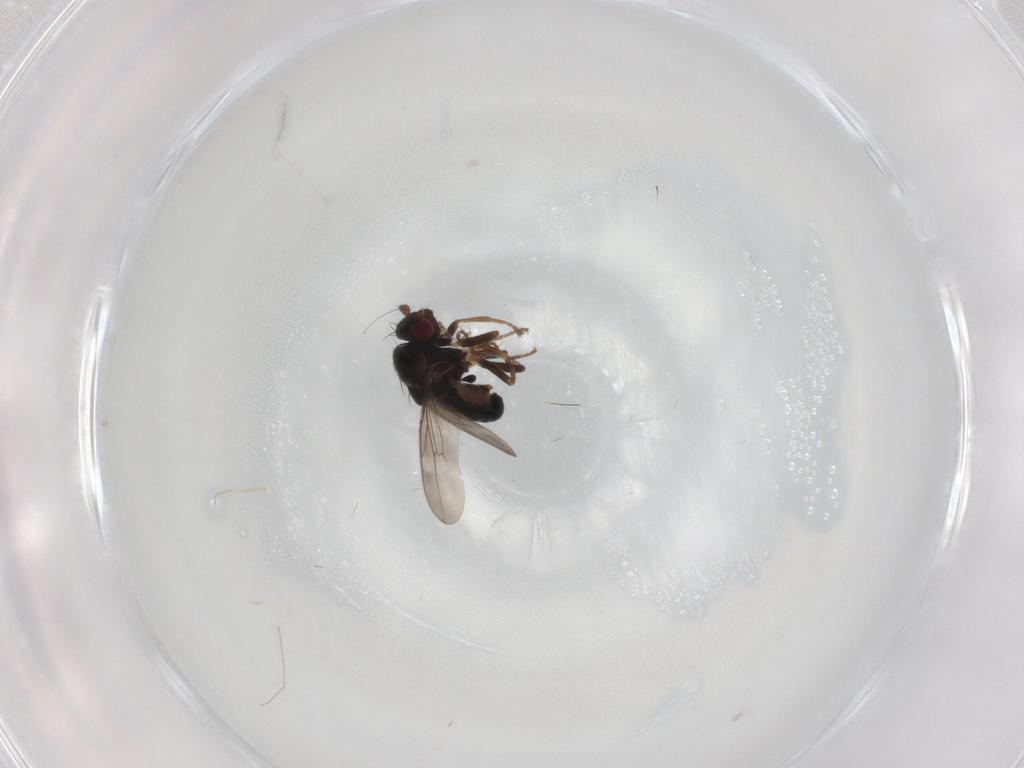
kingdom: Animalia
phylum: Arthropoda
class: Insecta
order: Diptera
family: Sphaeroceridae
